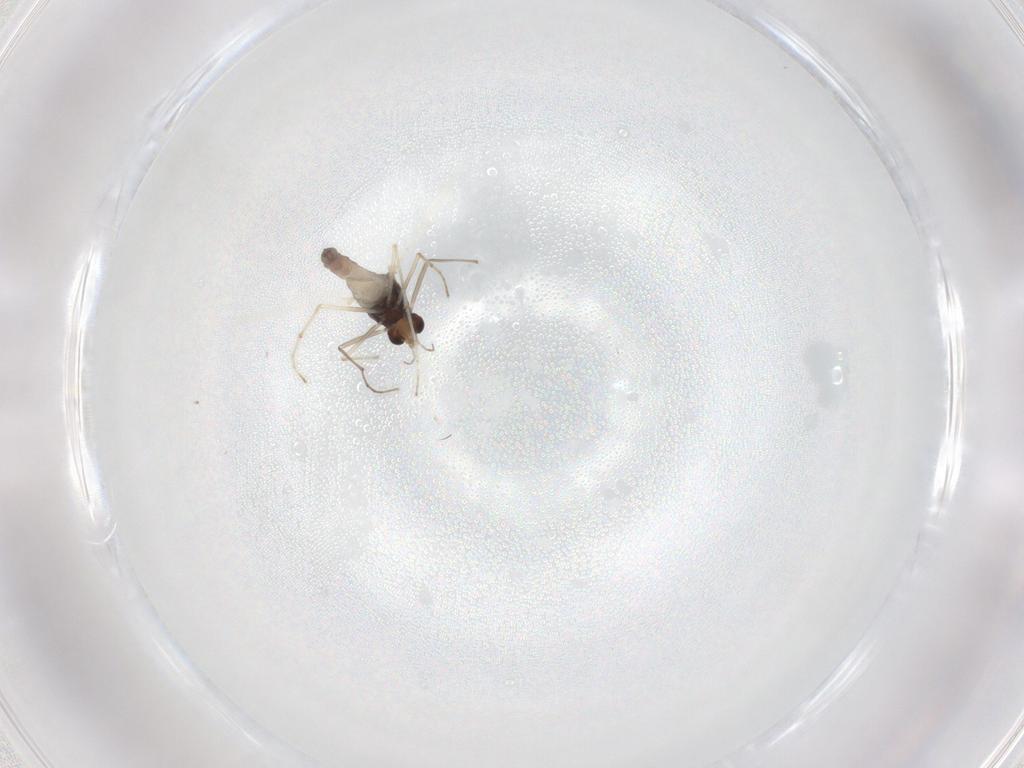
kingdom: Animalia
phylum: Arthropoda
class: Insecta
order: Diptera
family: Chironomidae
